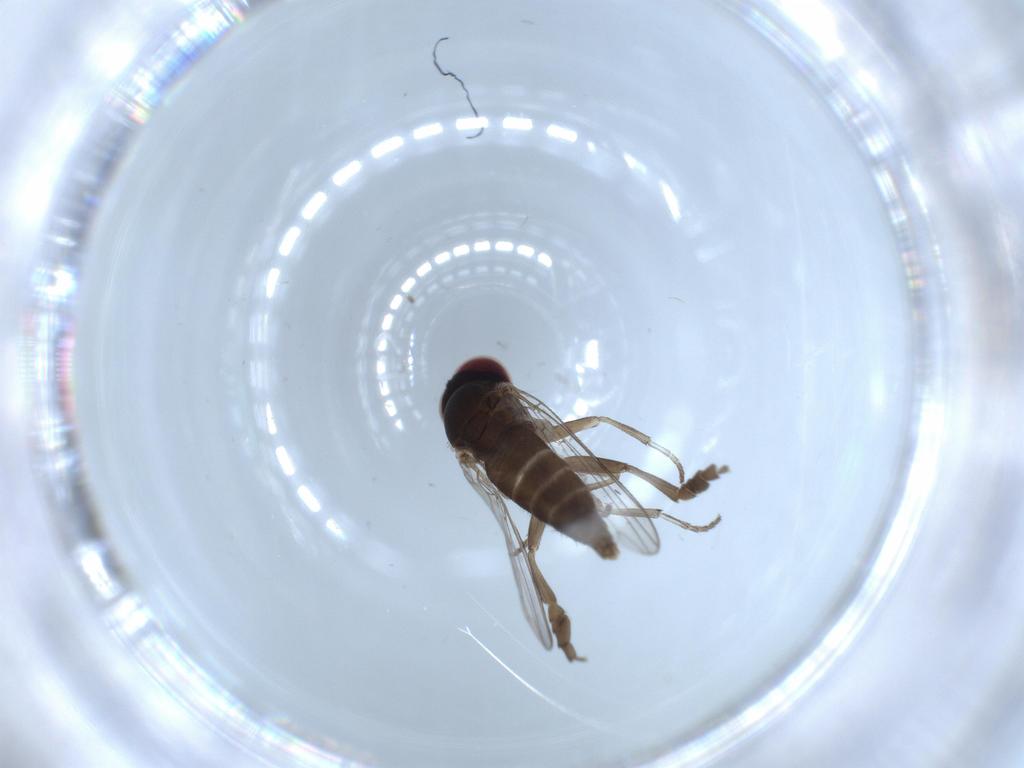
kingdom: Animalia
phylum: Arthropoda
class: Insecta
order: Diptera
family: Platypezidae
